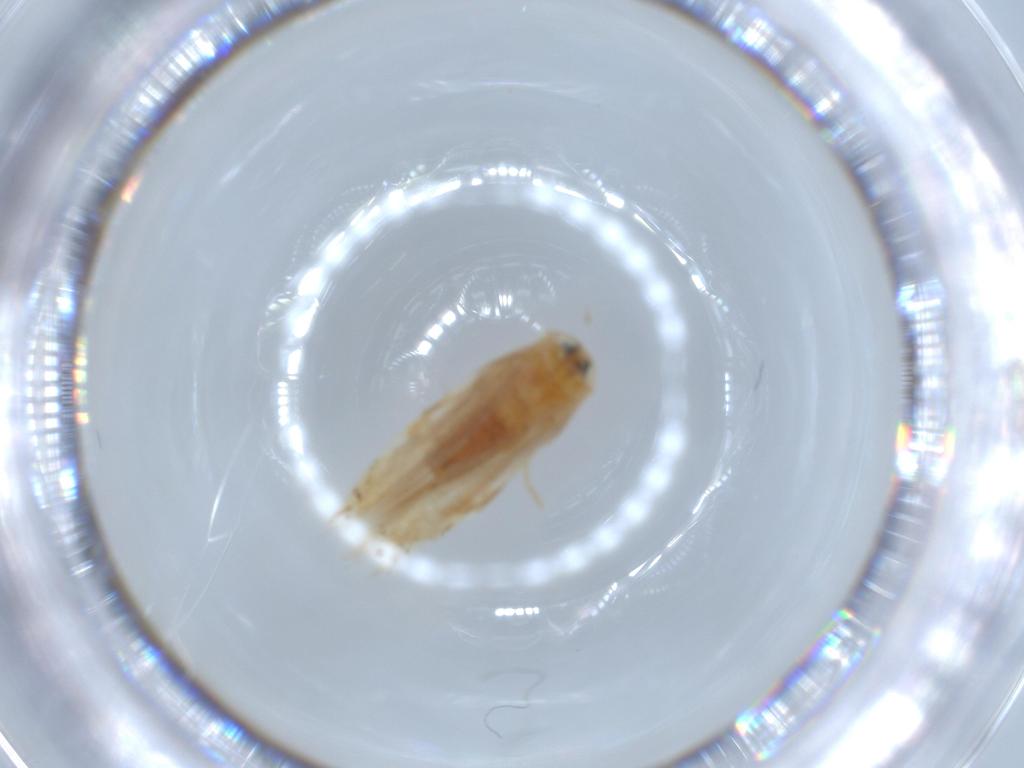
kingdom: Animalia
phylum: Arthropoda
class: Insecta
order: Lepidoptera
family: Opostegidae
